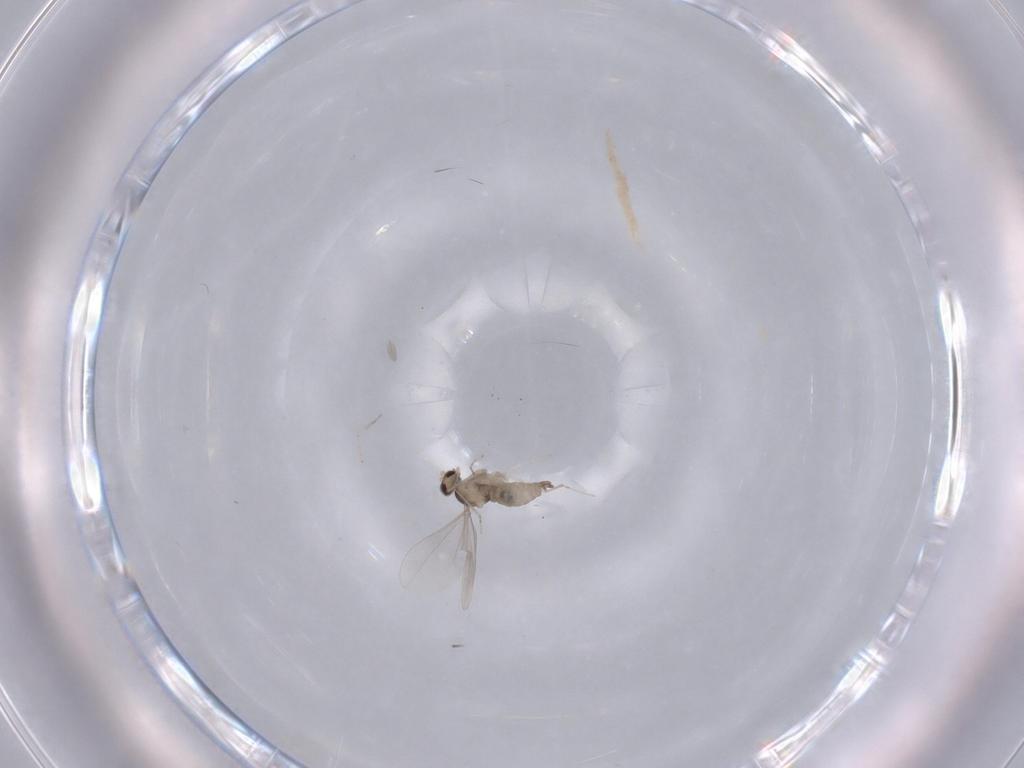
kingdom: Animalia
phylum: Arthropoda
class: Insecta
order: Diptera
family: Cecidomyiidae
